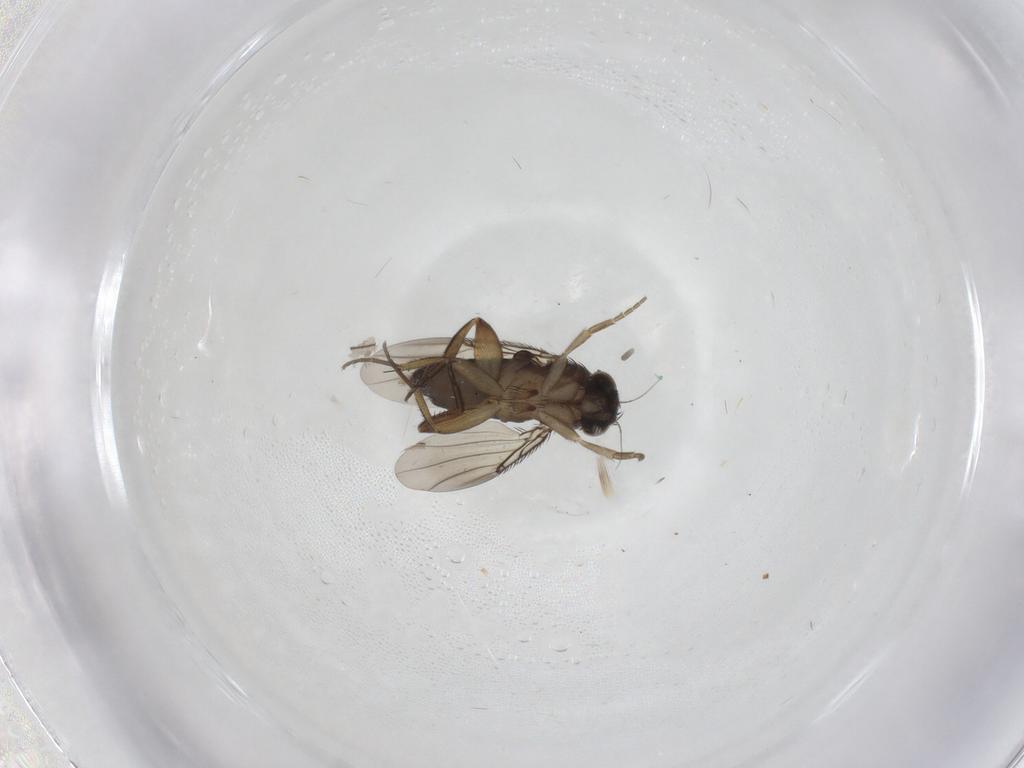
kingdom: Animalia
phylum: Arthropoda
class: Insecta
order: Diptera
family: Phoridae
